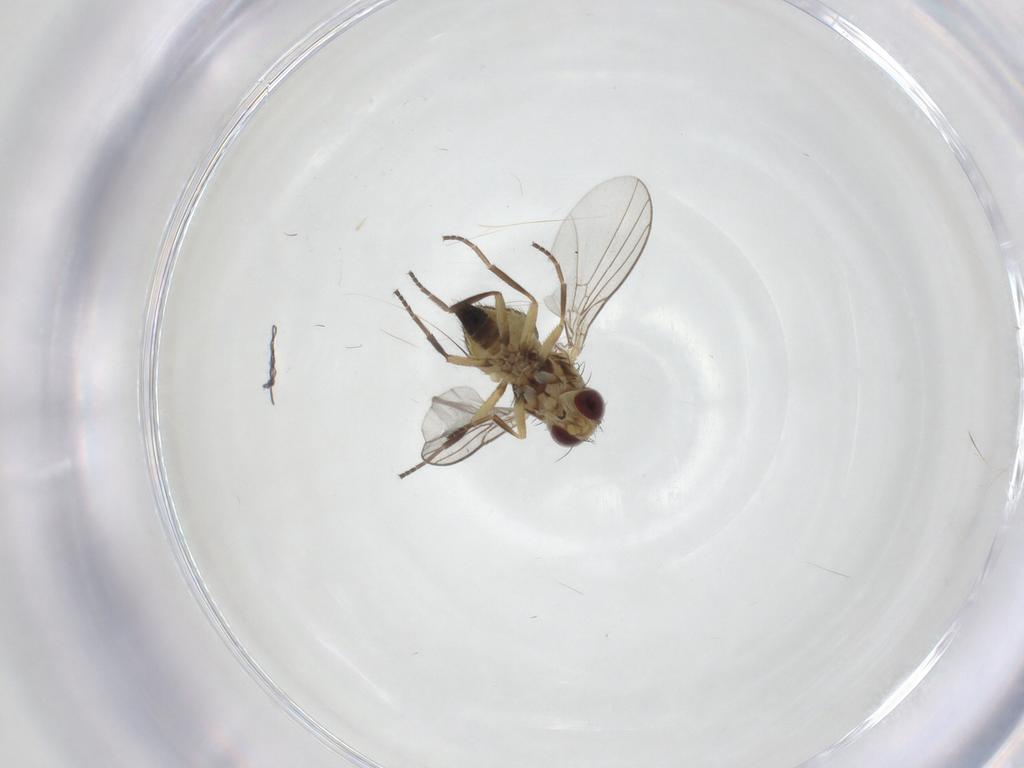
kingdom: Animalia
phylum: Arthropoda
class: Insecta
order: Diptera
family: Agromyzidae
